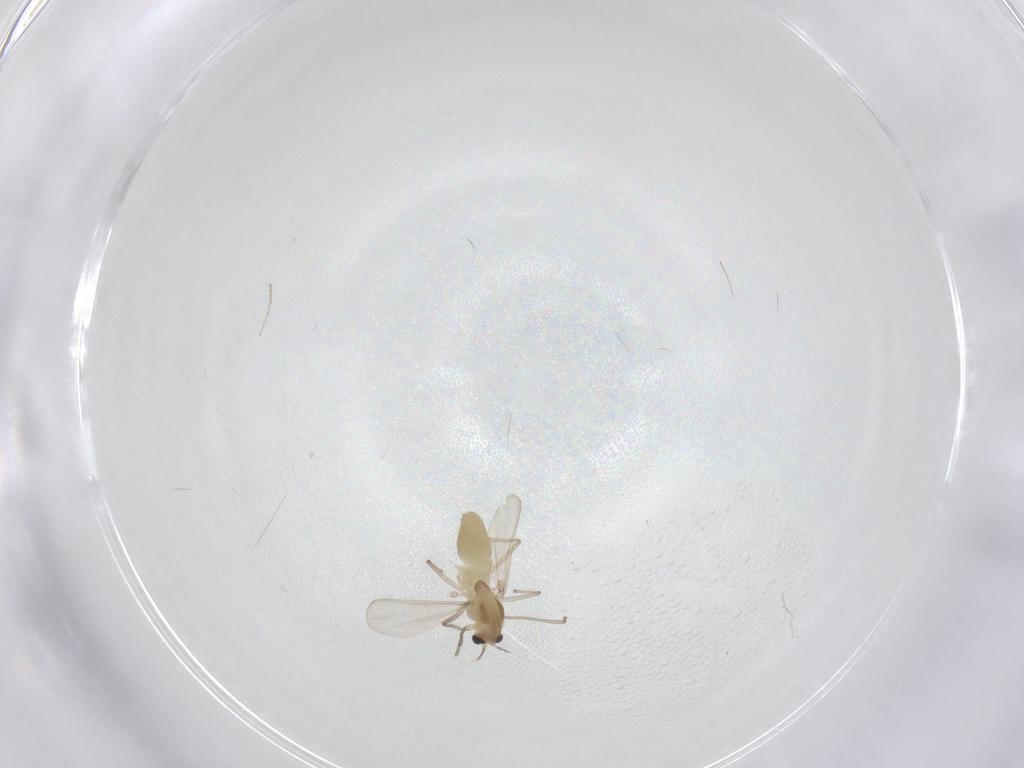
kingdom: Animalia
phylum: Arthropoda
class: Insecta
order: Diptera
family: Chironomidae
